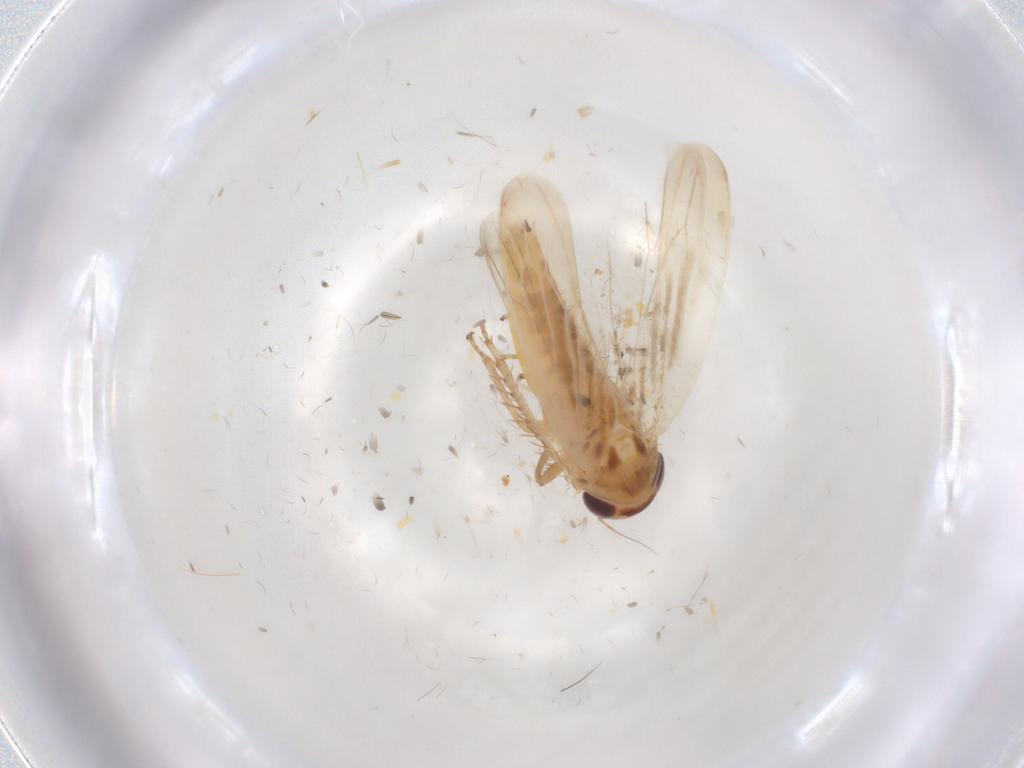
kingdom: Animalia
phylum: Arthropoda
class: Insecta
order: Hemiptera
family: Cicadellidae
